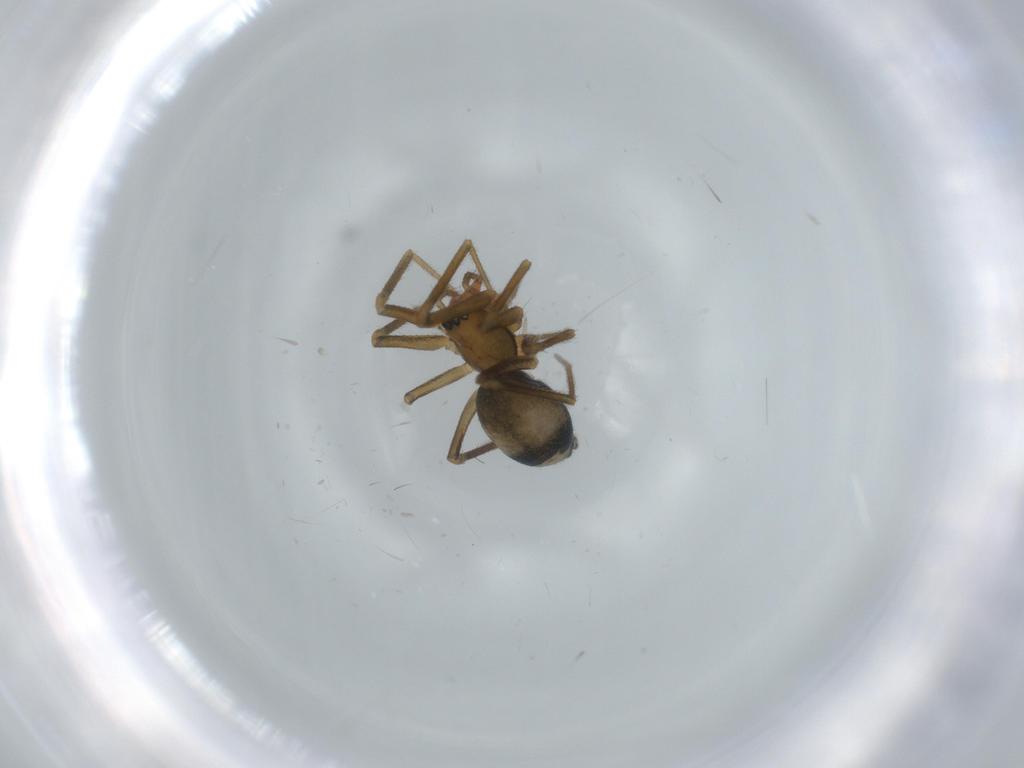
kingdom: Animalia
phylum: Arthropoda
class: Arachnida
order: Araneae
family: Linyphiidae
